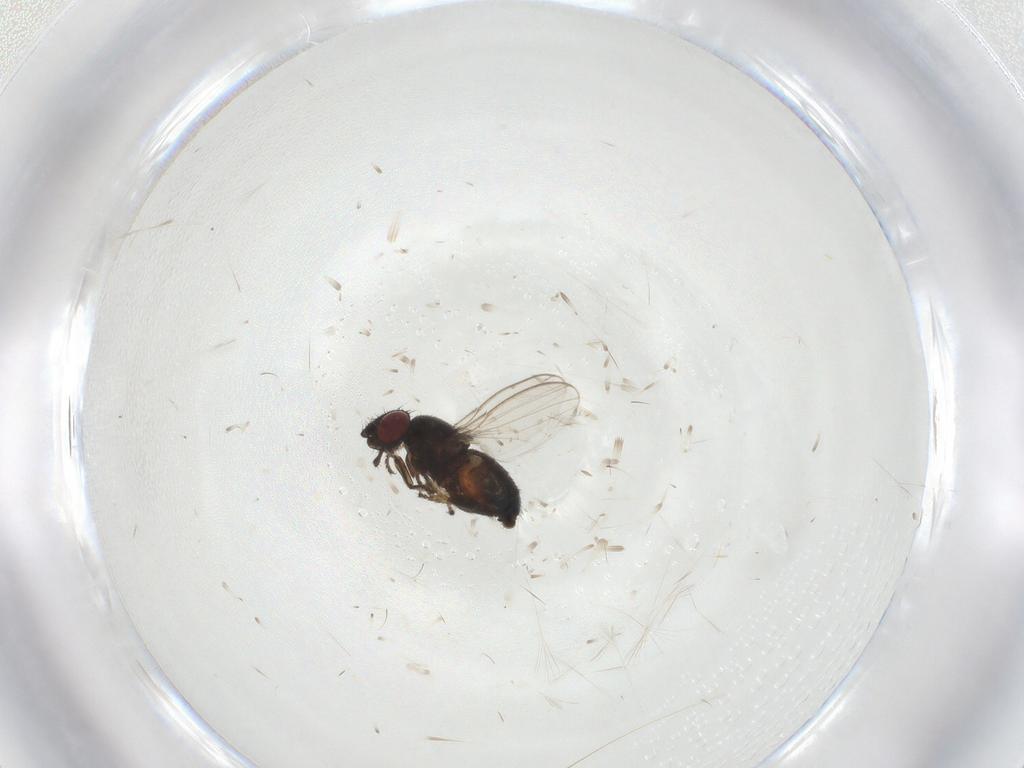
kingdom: Animalia
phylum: Arthropoda
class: Insecta
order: Diptera
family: Milichiidae
